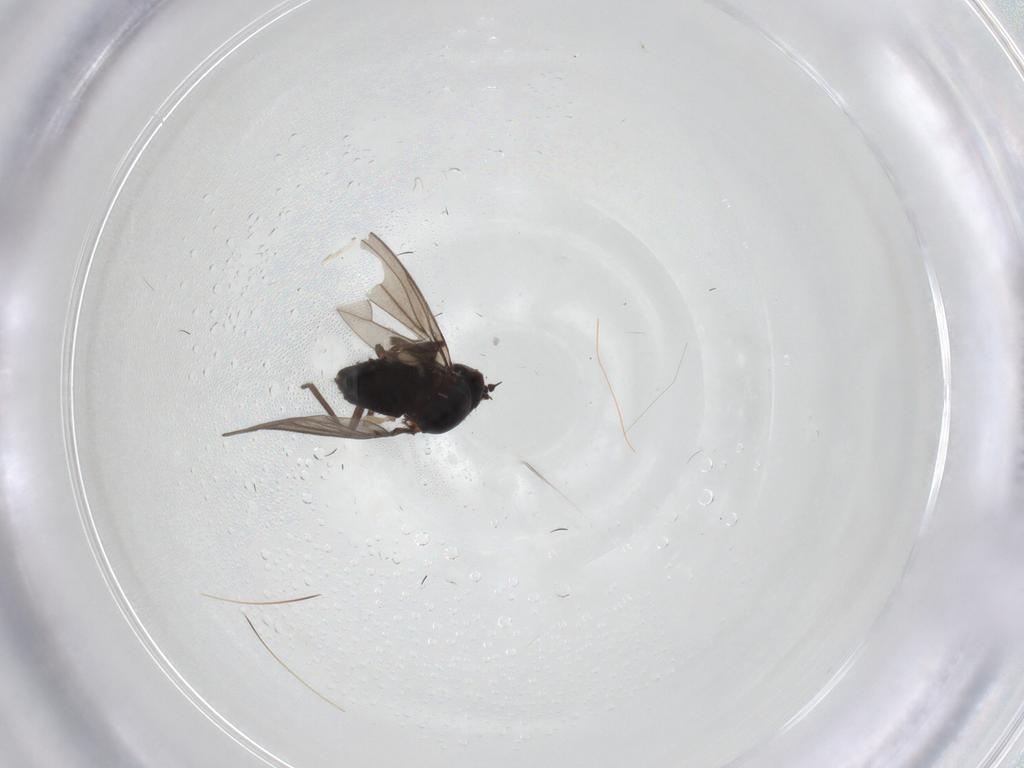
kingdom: Animalia
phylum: Arthropoda
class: Insecta
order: Diptera
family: Dolichopodidae
